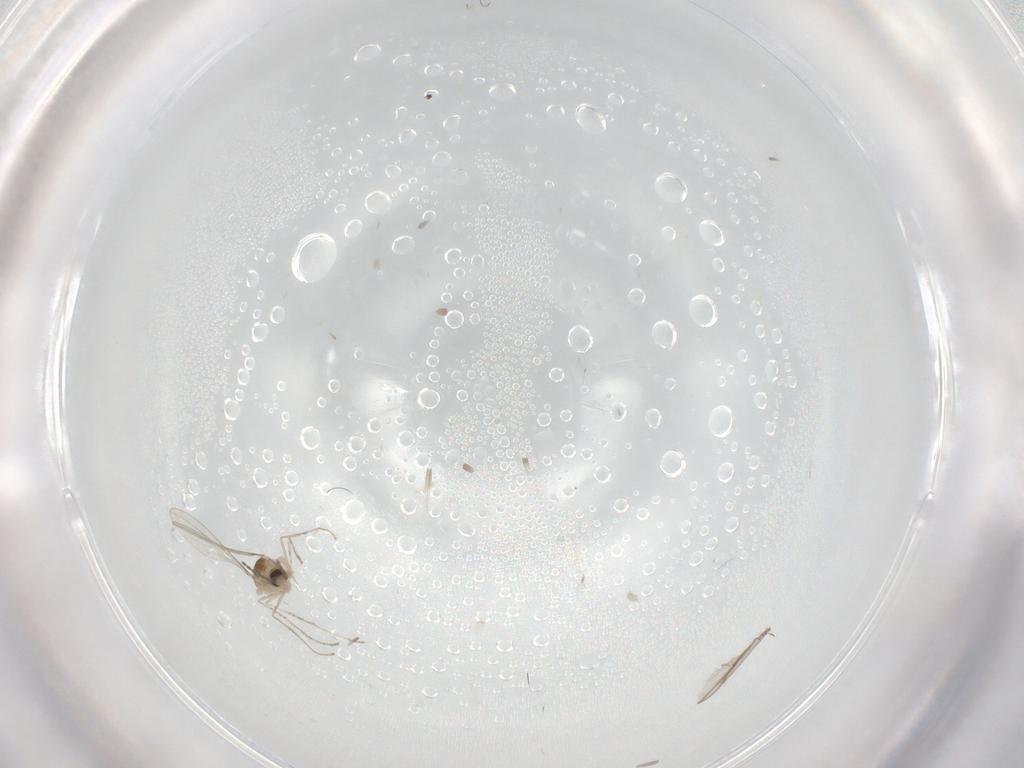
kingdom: Animalia
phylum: Arthropoda
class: Insecta
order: Diptera
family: Cecidomyiidae
